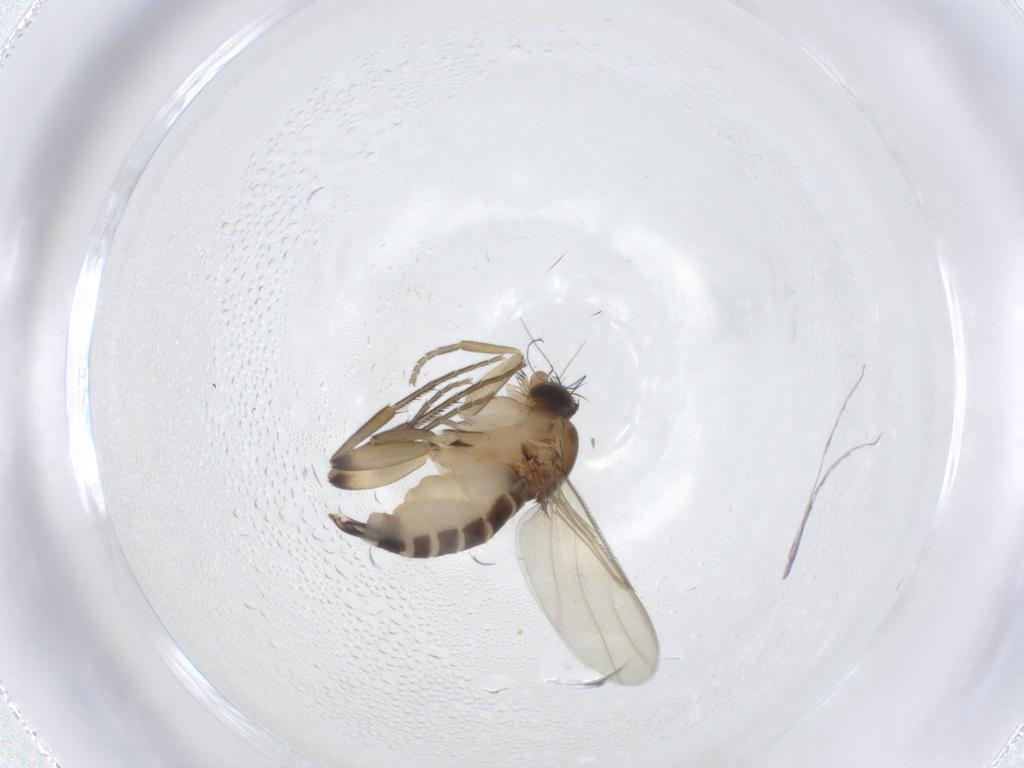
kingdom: Animalia
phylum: Arthropoda
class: Insecta
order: Diptera
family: Phoridae
